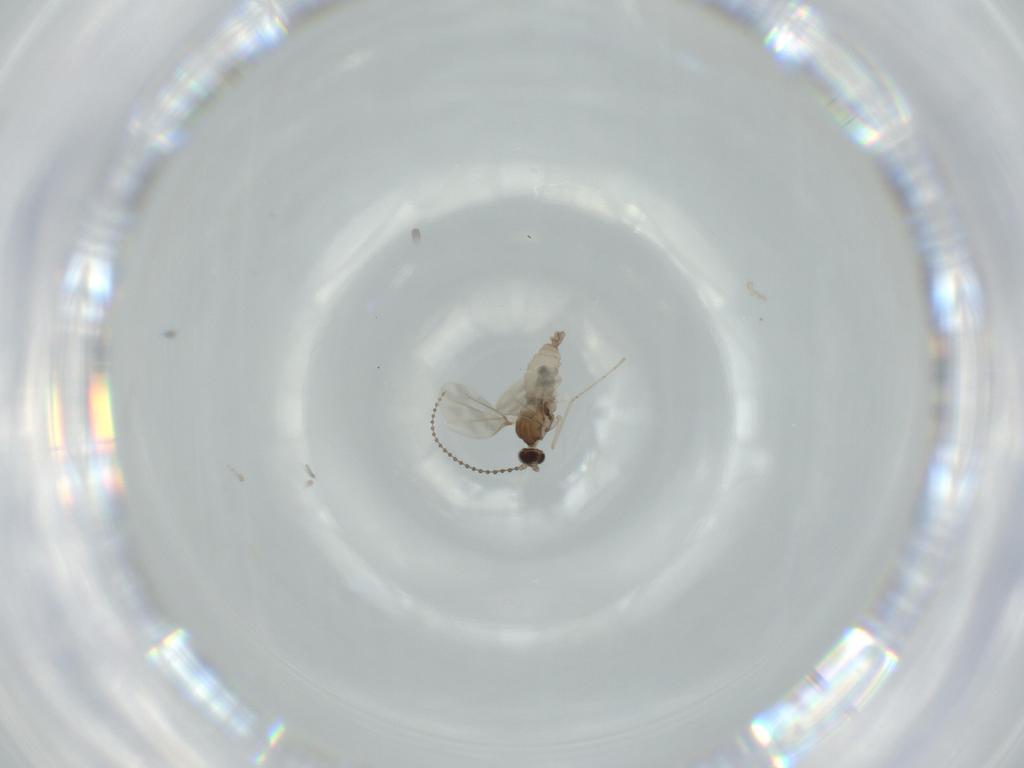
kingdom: Animalia
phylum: Arthropoda
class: Insecta
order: Diptera
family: Cecidomyiidae
